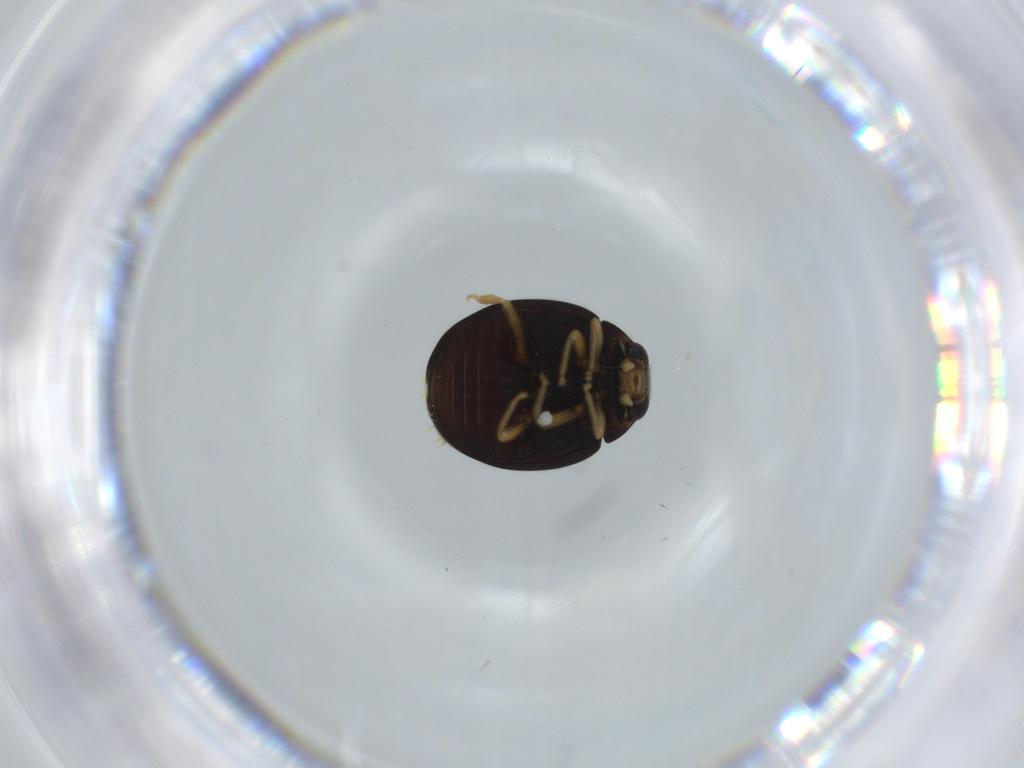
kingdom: Animalia
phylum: Arthropoda
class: Insecta
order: Coleoptera
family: Coccinellidae
